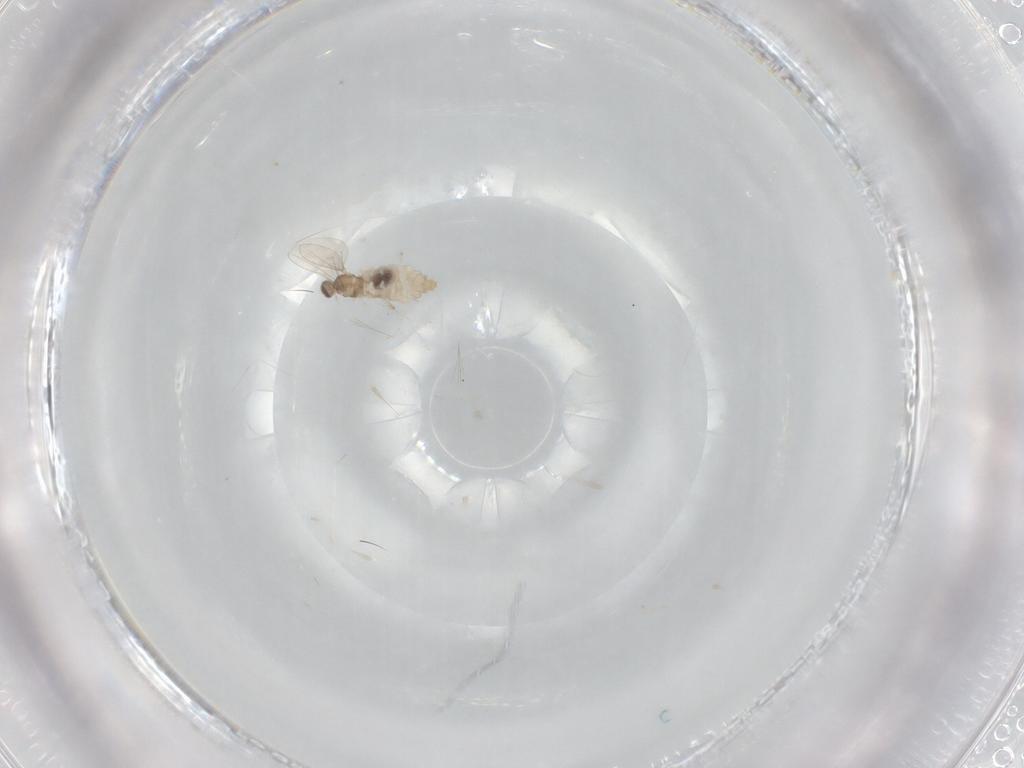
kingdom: Animalia
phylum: Arthropoda
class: Insecta
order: Diptera
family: Cecidomyiidae
